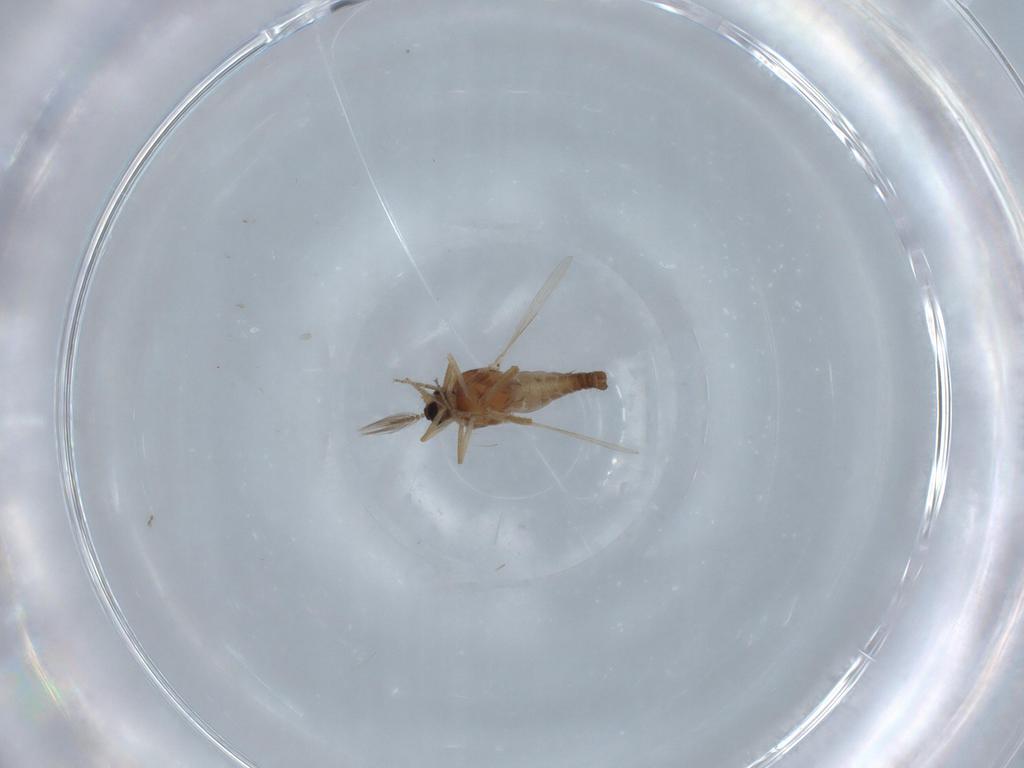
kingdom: Animalia
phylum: Arthropoda
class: Insecta
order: Diptera
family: Ceratopogonidae
